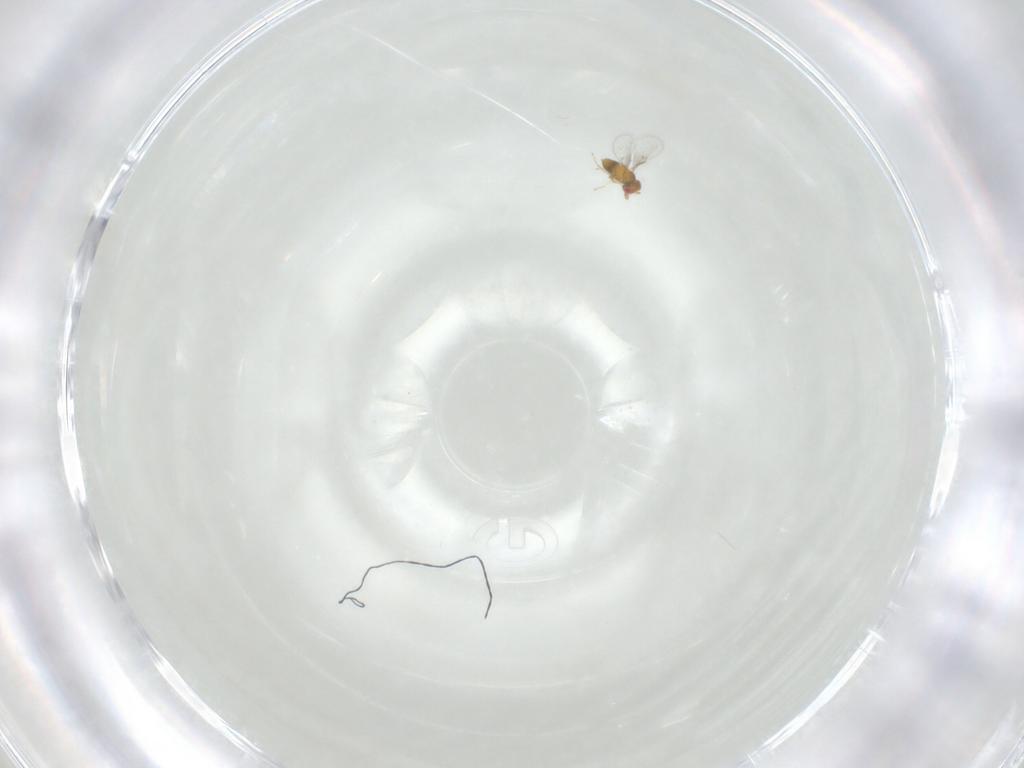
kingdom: Animalia
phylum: Arthropoda
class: Insecta
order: Hymenoptera
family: Trichogrammatidae
